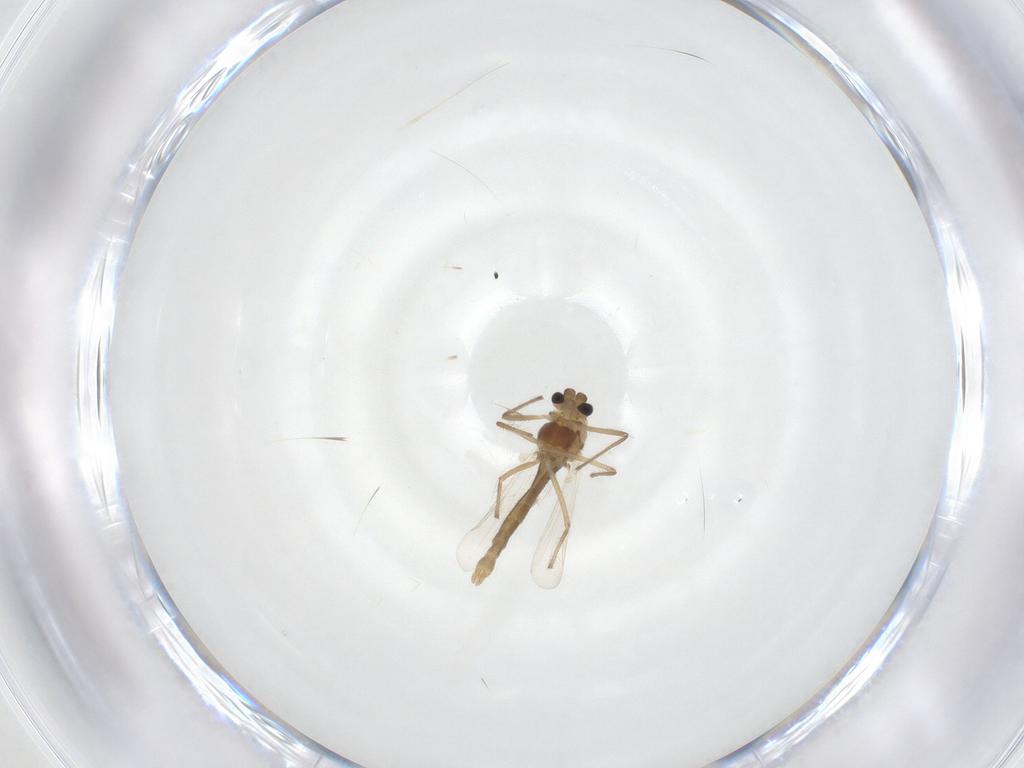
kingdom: Animalia
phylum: Arthropoda
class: Insecta
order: Diptera
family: Chironomidae
